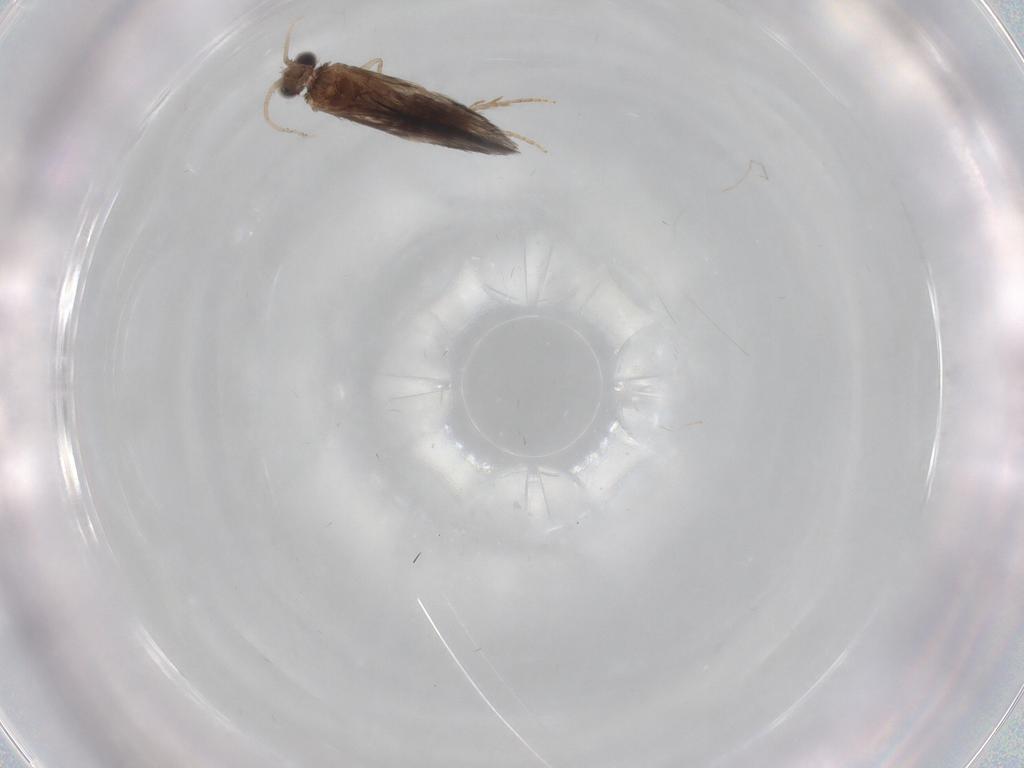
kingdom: Animalia
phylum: Arthropoda
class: Insecta
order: Trichoptera
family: Hydroptilidae
